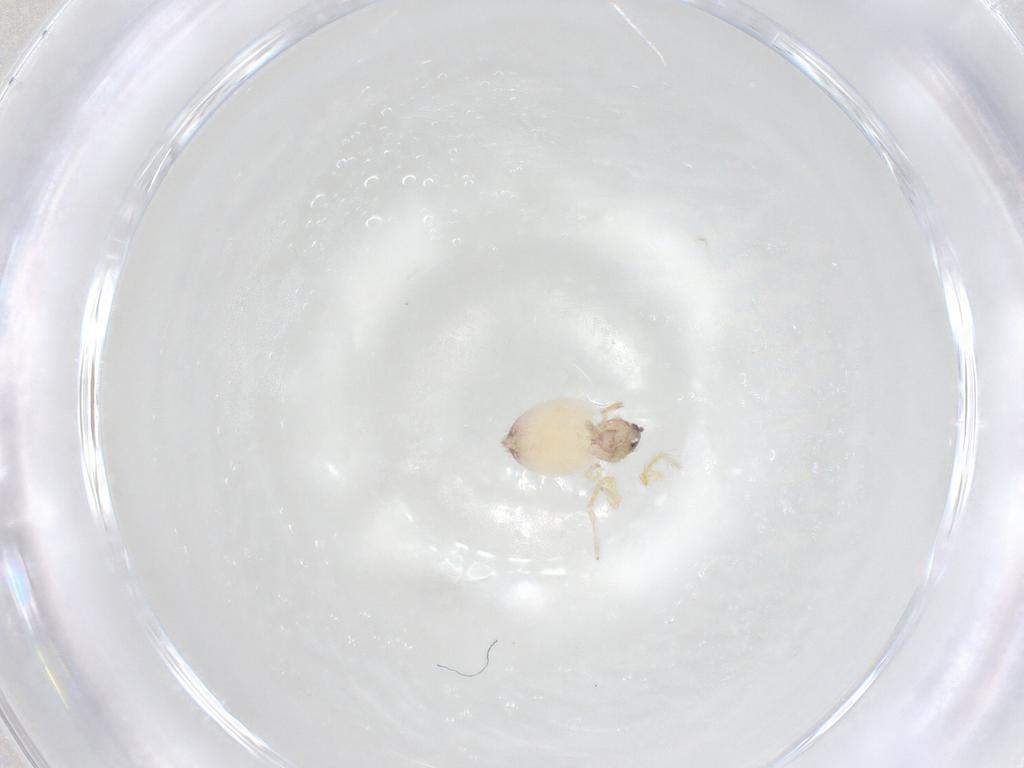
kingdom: Animalia
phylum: Arthropoda
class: Arachnida
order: Araneae
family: Dictynidae
